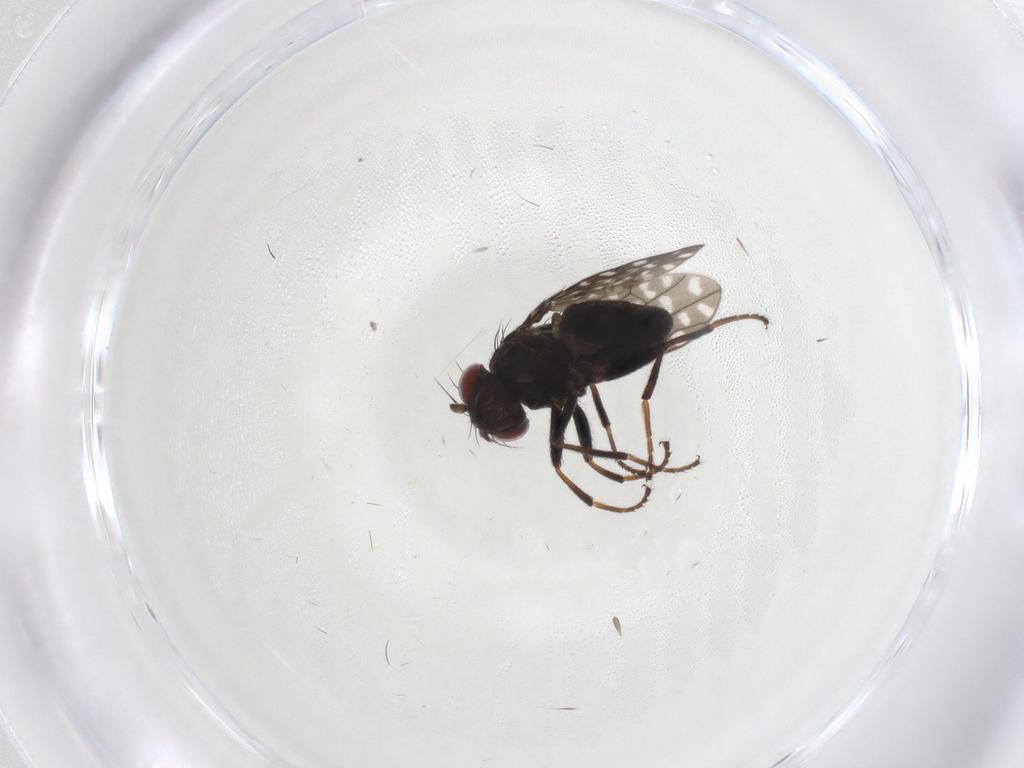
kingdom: Animalia
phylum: Arthropoda
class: Insecta
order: Diptera
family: Ephydridae
